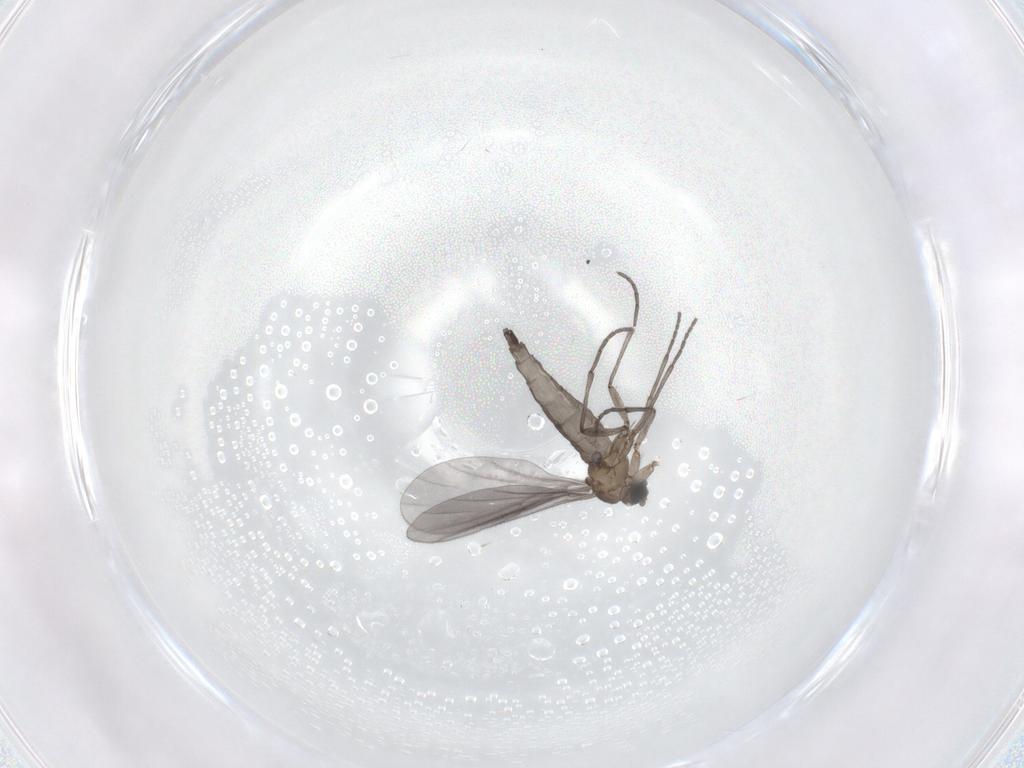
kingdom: Animalia
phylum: Arthropoda
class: Insecta
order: Diptera
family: Sciaridae
